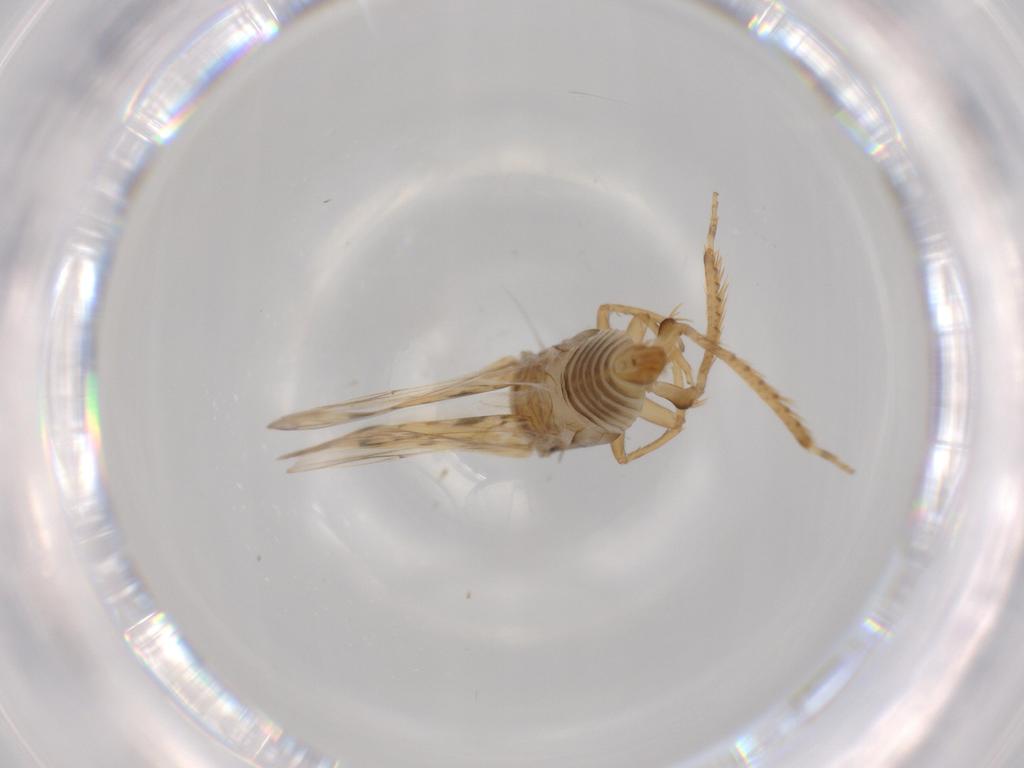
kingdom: Animalia
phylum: Arthropoda
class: Insecta
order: Hemiptera
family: Cicadellidae
